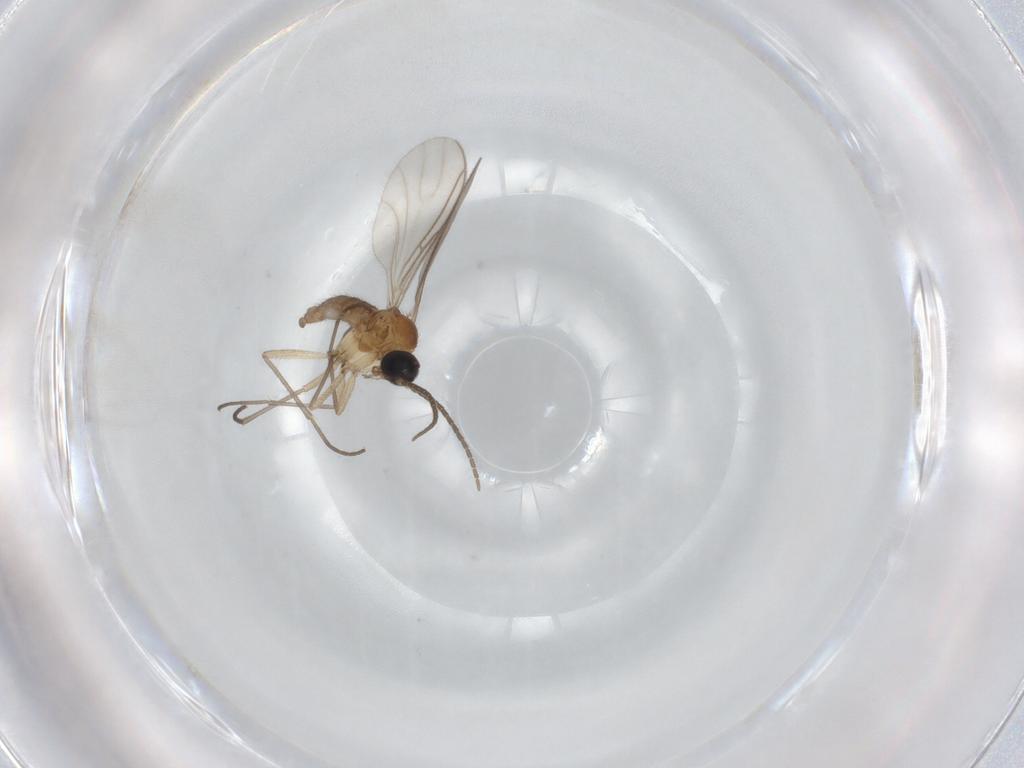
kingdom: Animalia
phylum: Arthropoda
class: Insecta
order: Diptera
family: Sciaridae
